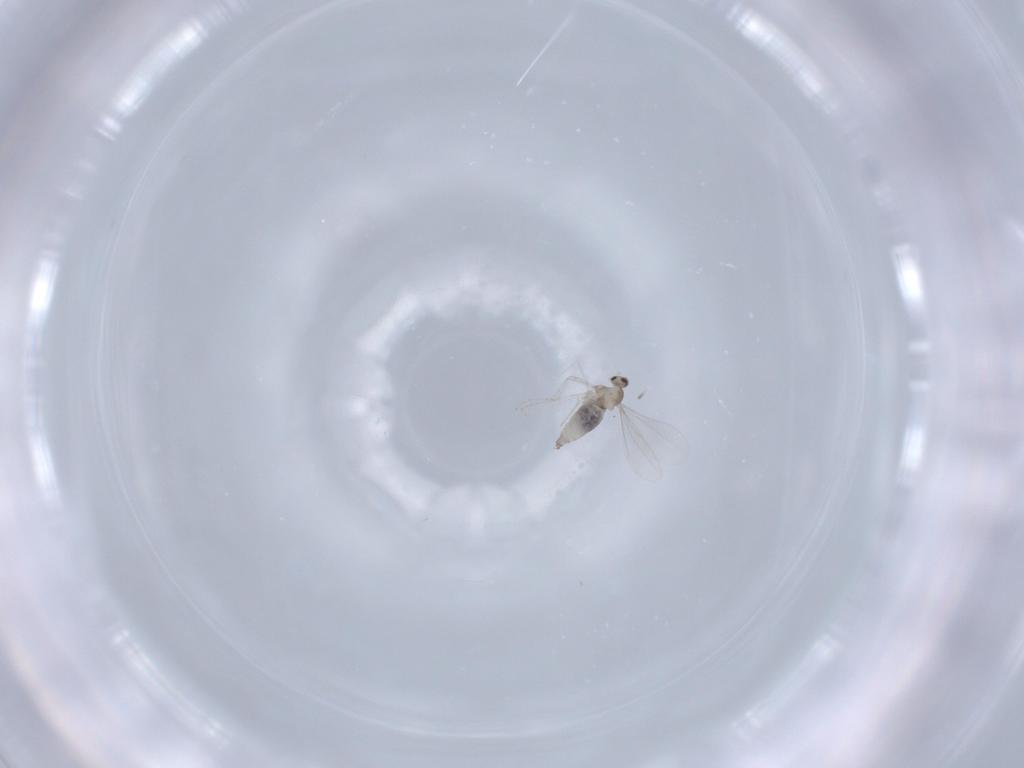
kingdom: Animalia
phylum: Arthropoda
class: Insecta
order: Diptera
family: Cecidomyiidae
